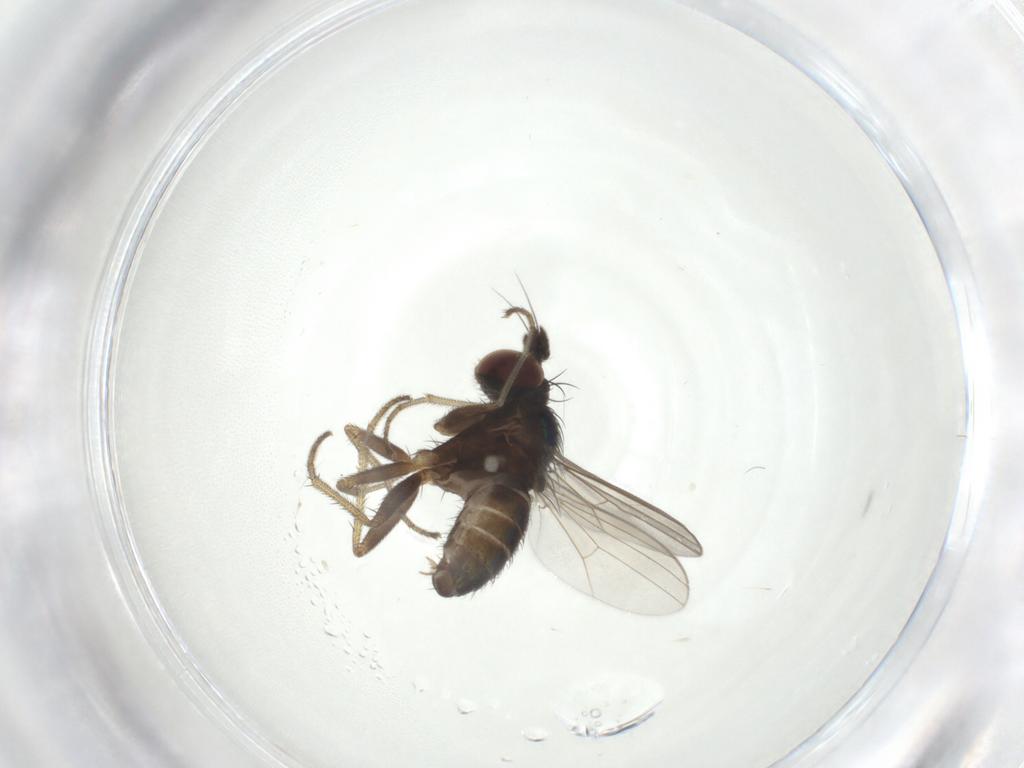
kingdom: Animalia
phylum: Arthropoda
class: Insecta
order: Diptera
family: Dolichopodidae
